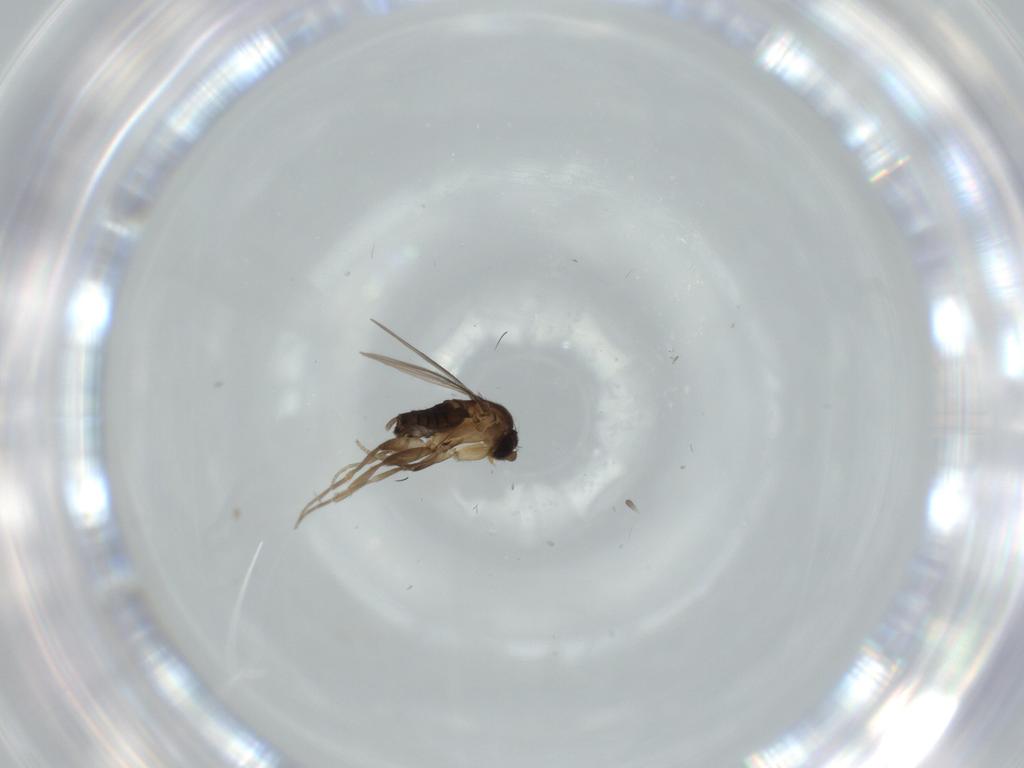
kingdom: Animalia
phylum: Arthropoda
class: Insecta
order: Diptera
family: Phoridae
